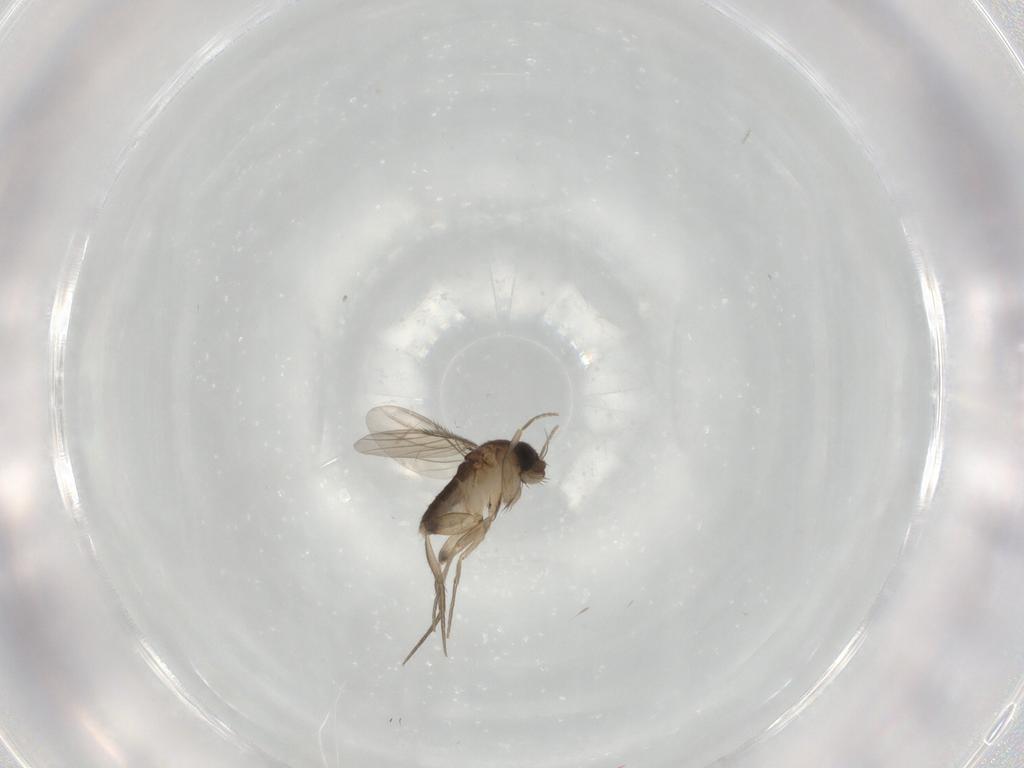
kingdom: Animalia
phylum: Arthropoda
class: Insecta
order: Diptera
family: Phoridae
